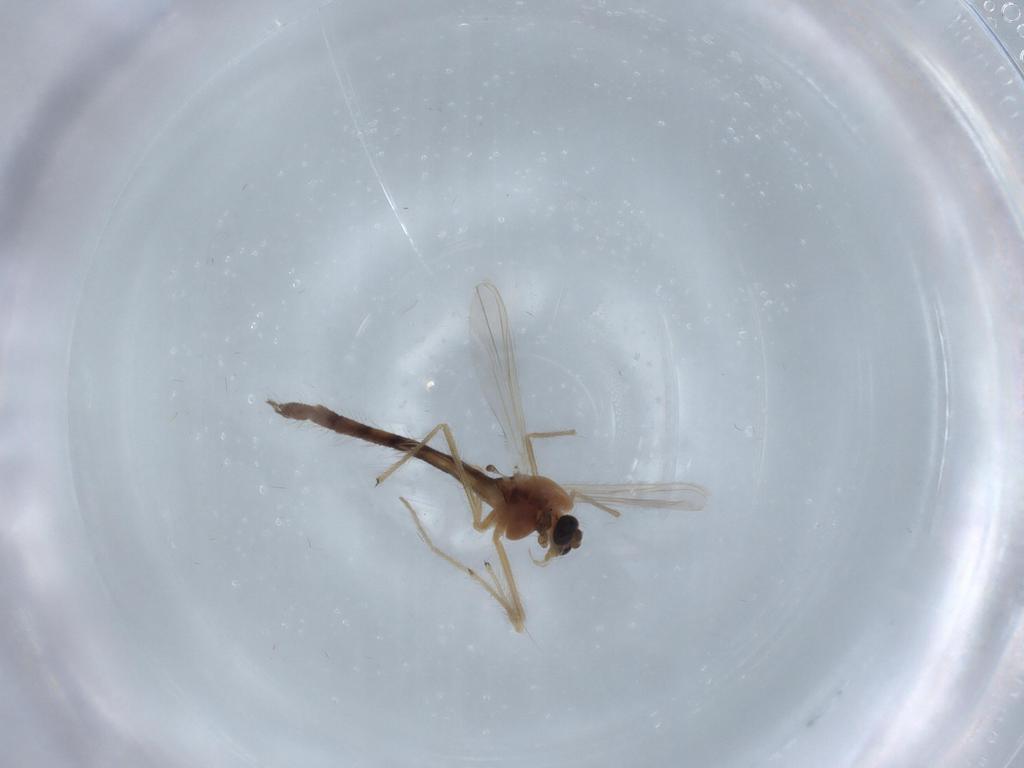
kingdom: Animalia
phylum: Arthropoda
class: Insecta
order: Diptera
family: Chironomidae
